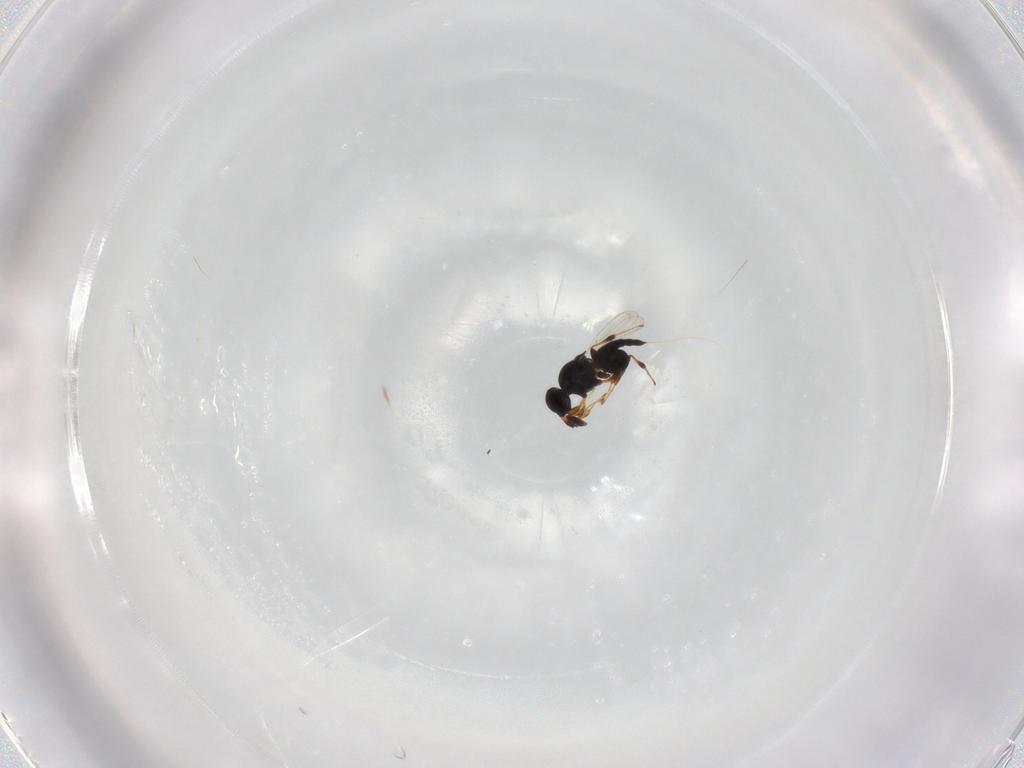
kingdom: Animalia
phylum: Arthropoda
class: Insecta
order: Hymenoptera
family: Platygastridae
